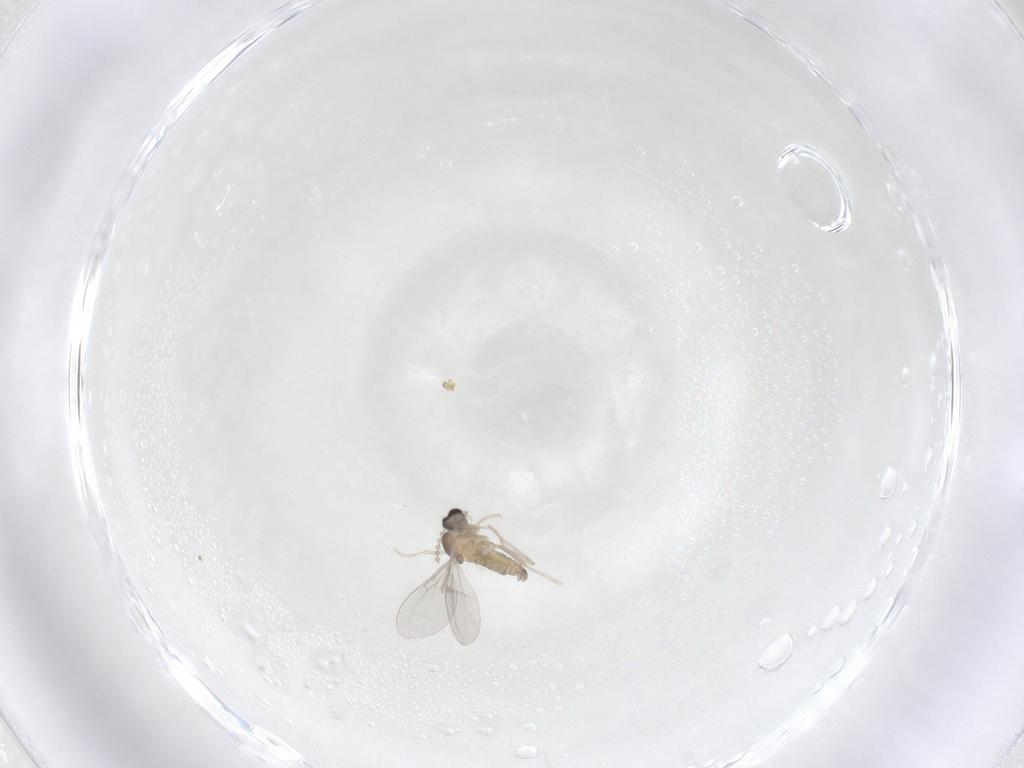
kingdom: Animalia
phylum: Arthropoda
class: Insecta
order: Diptera
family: Cecidomyiidae
